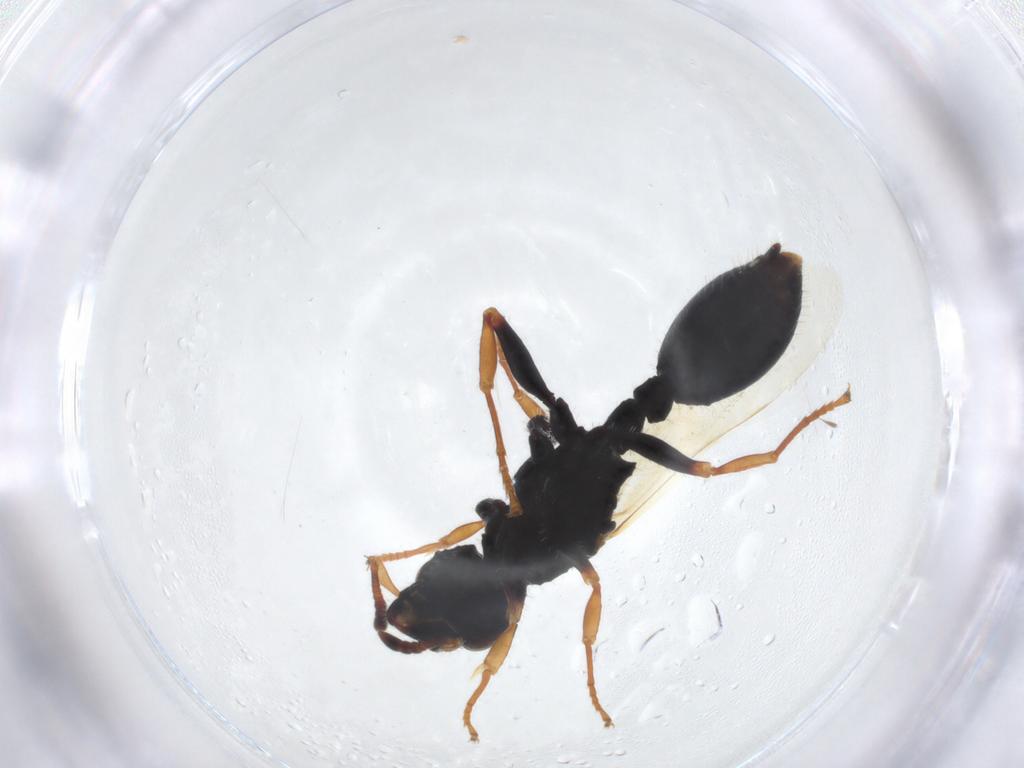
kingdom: Animalia
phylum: Arthropoda
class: Insecta
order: Hymenoptera
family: Formicidae
